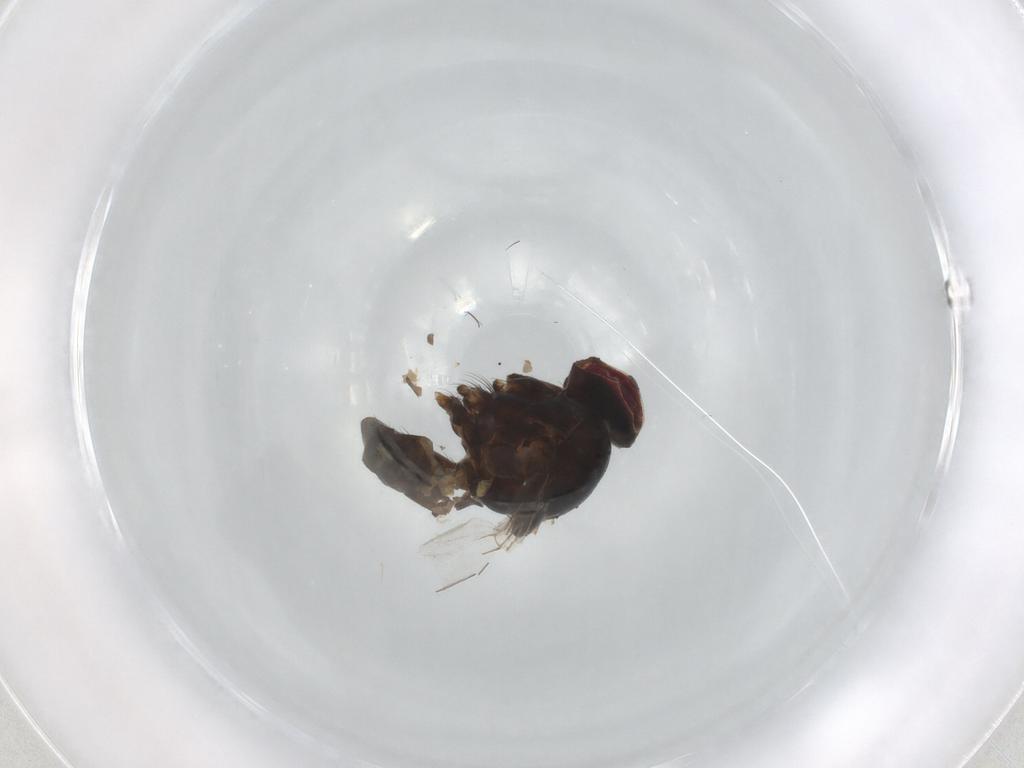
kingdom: Animalia
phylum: Arthropoda
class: Insecta
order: Diptera
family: Muscidae
